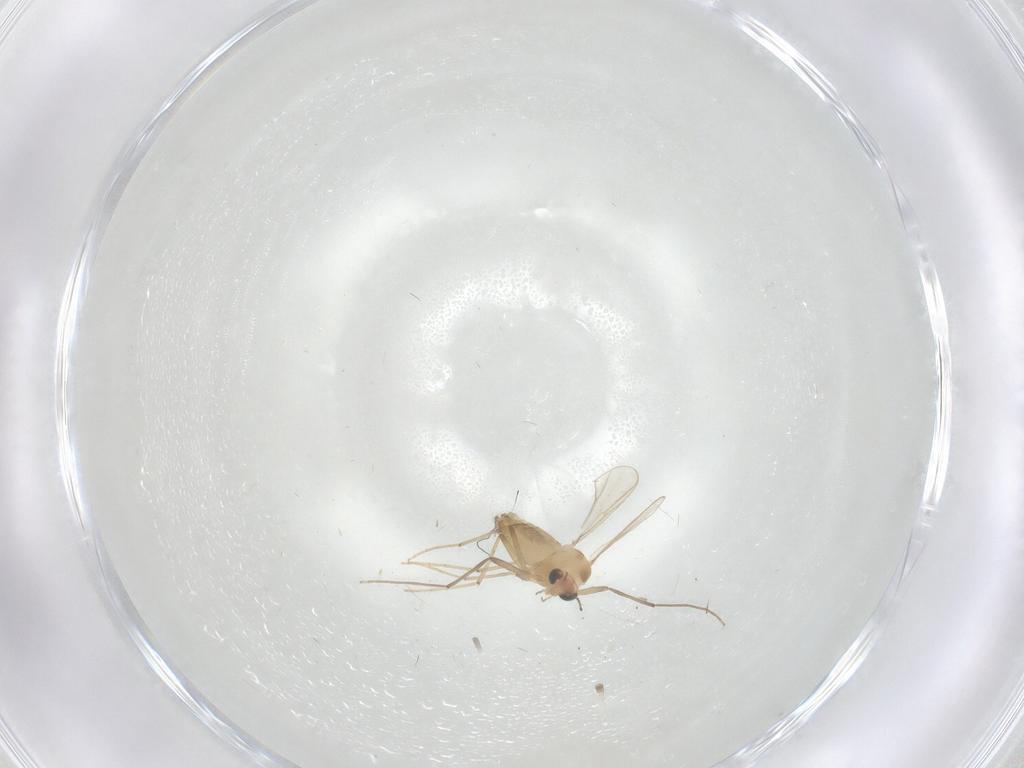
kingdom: Animalia
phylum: Arthropoda
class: Insecta
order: Diptera
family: Chironomidae
